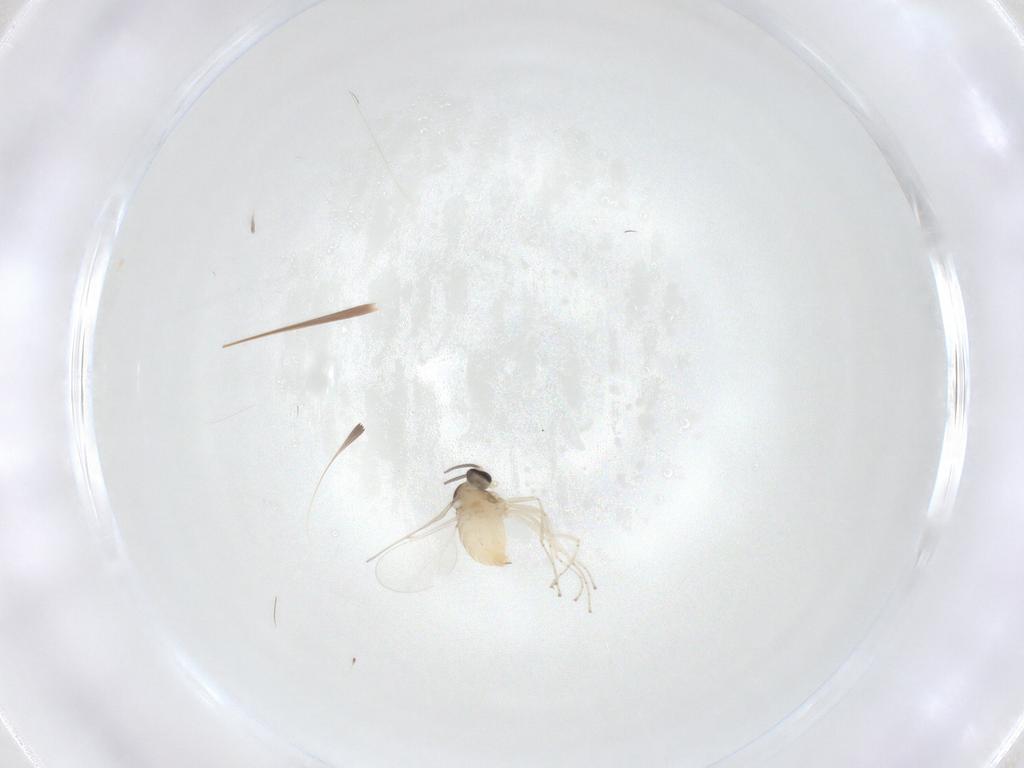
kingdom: Animalia
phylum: Arthropoda
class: Insecta
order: Diptera
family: Cecidomyiidae
